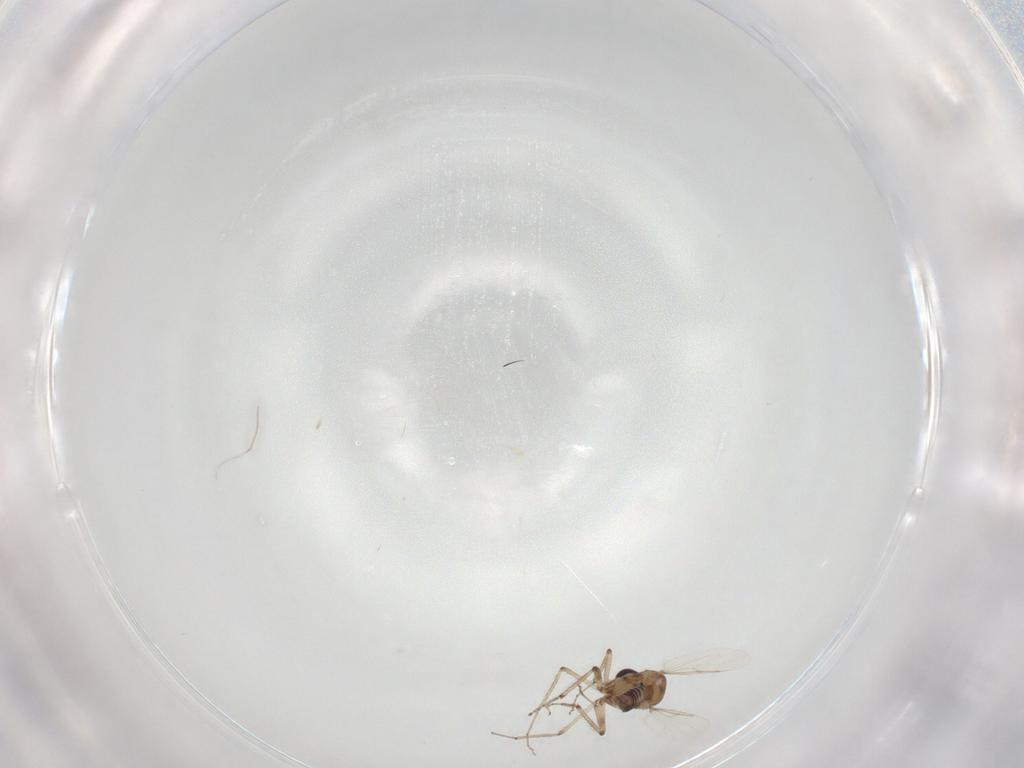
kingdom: Animalia
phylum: Arthropoda
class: Insecta
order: Diptera
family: Ceratopogonidae
